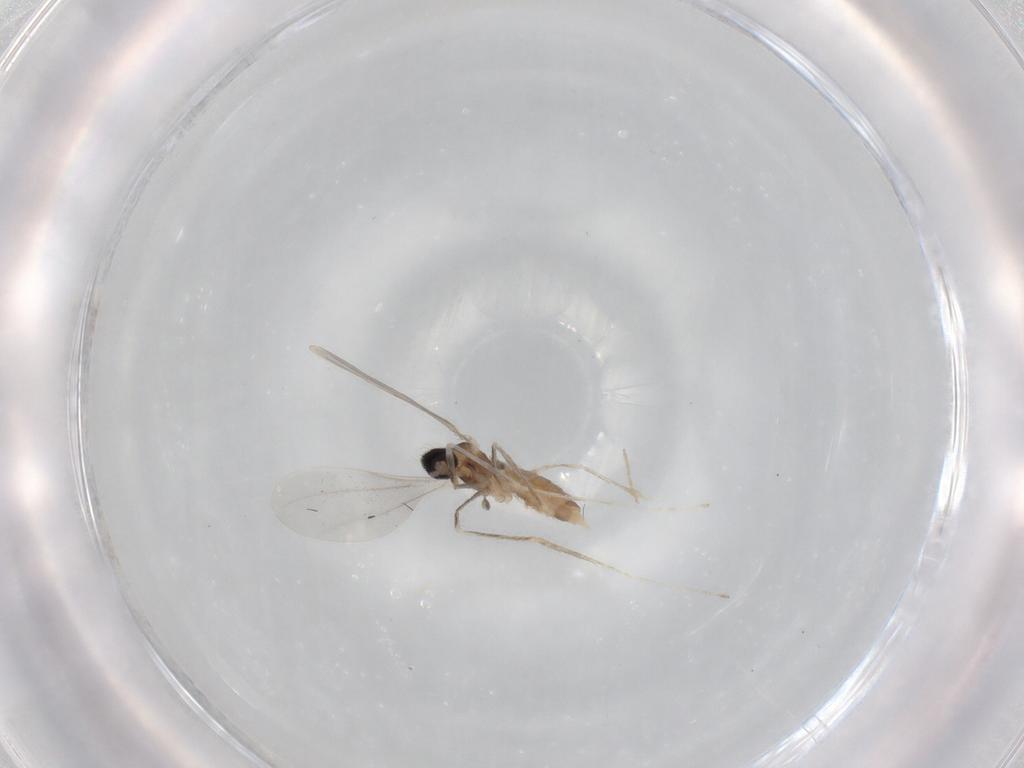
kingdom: Animalia
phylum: Arthropoda
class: Insecta
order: Diptera
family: Cecidomyiidae
